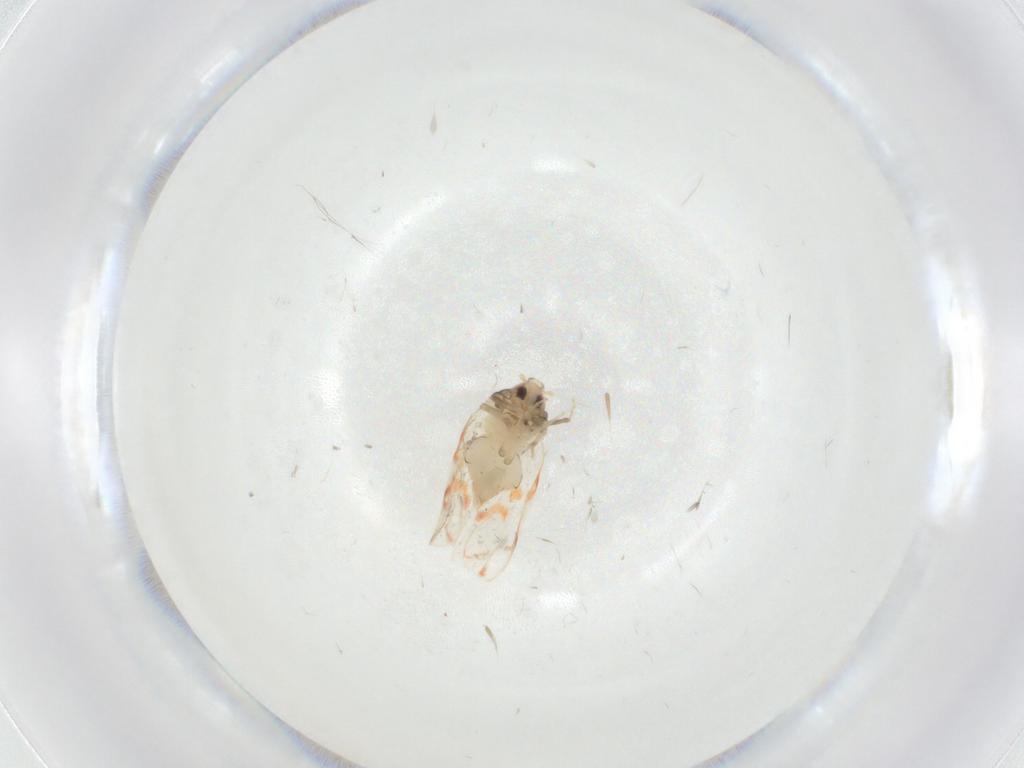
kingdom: Animalia
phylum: Arthropoda
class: Insecta
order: Hemiptera
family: Aleyrodidae
